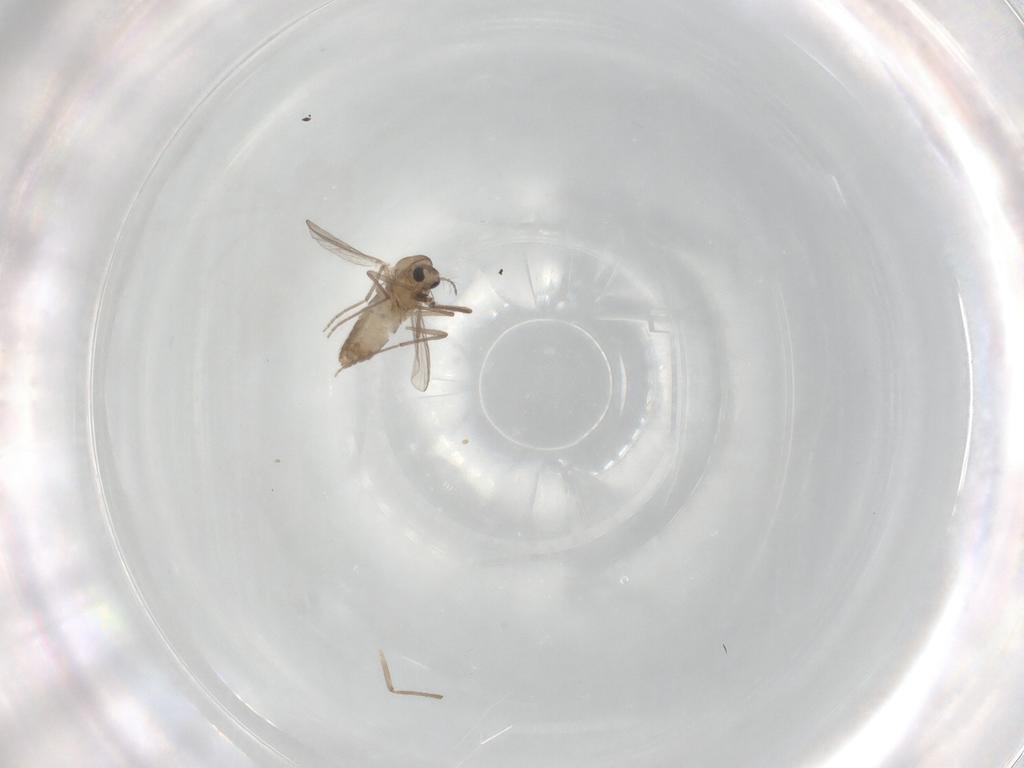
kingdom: Animalia
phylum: Arthropoda
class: Insecta
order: Diptera
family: Chironomidae
